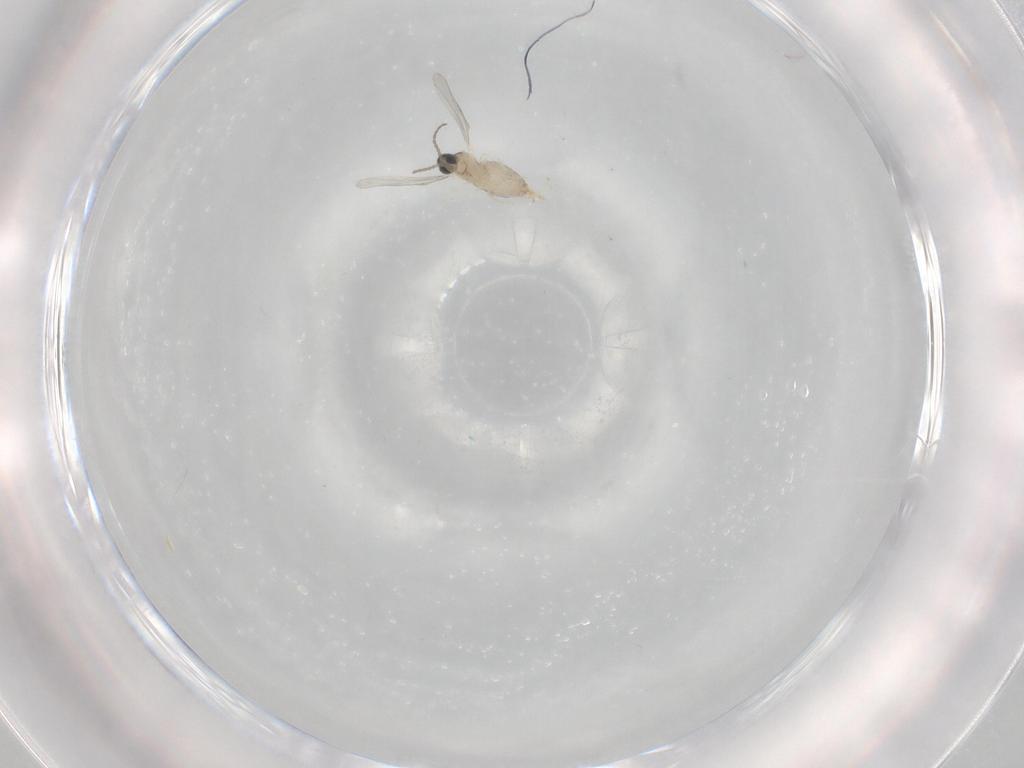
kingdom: Animalia
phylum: Arthropoda
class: Insecta
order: Diptera
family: Cecidomyiidae
